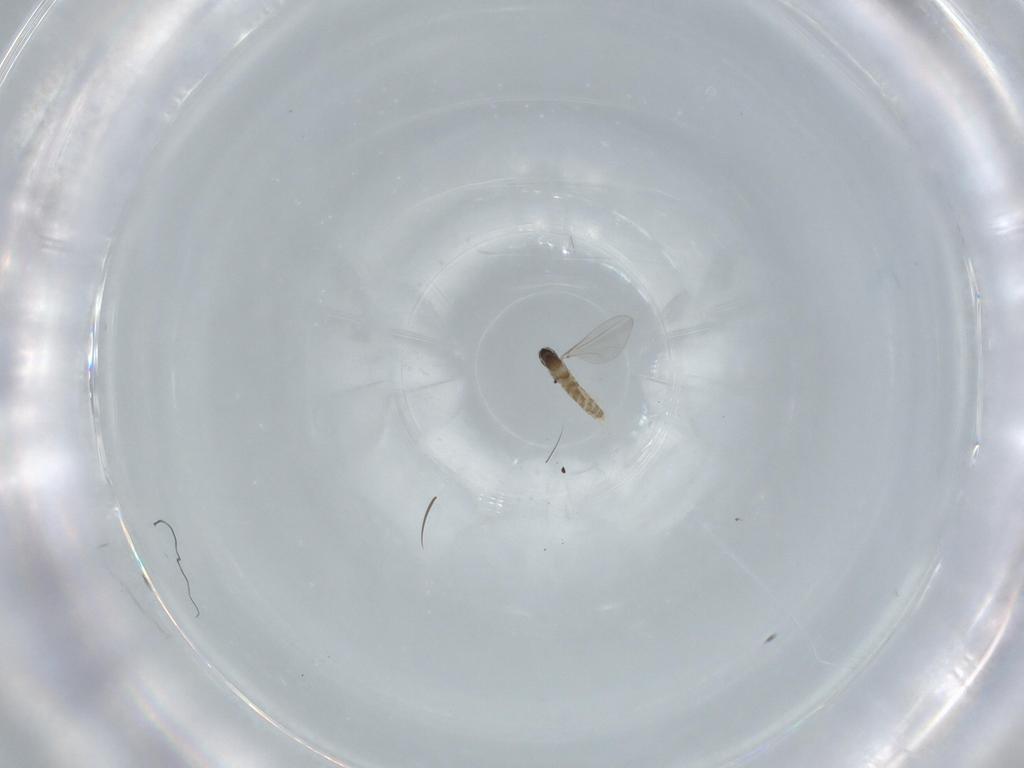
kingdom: Animalia
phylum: Arthropoda
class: Insecta
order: Diptera
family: Cecidomyiidae
